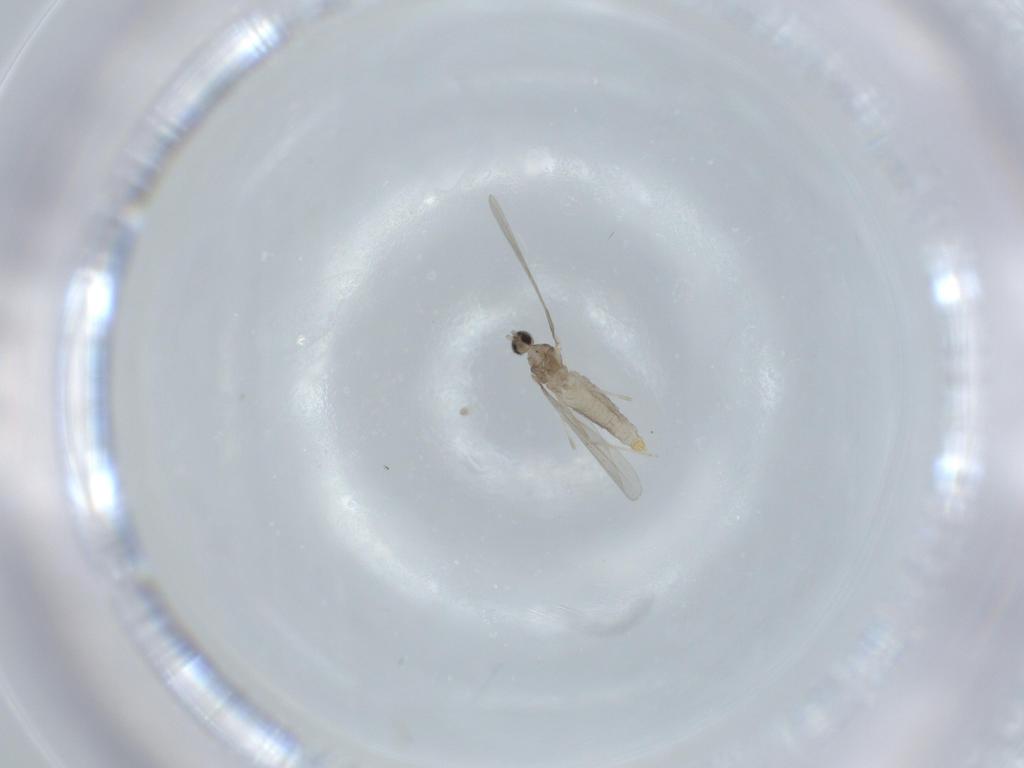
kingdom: Animalia
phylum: Arthropoda
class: Insecta
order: Diptera
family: Cecidomyiidae
